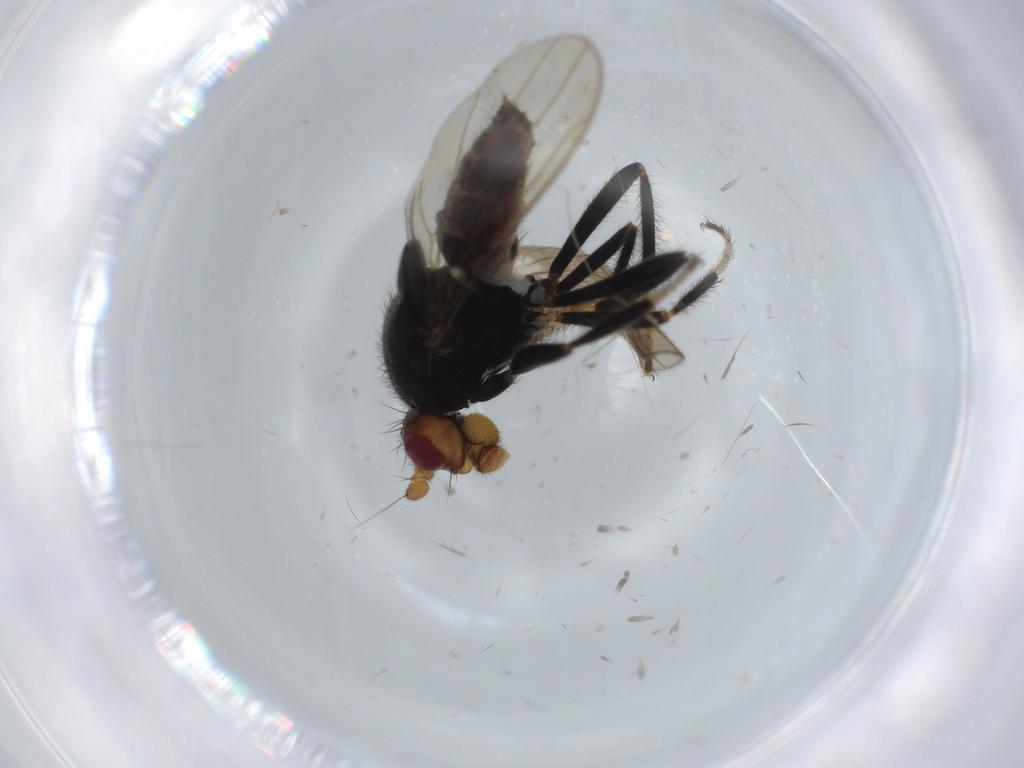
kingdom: Animalia
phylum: Arthropoda
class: Insecta
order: Diptera
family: Sphaeroceridae
